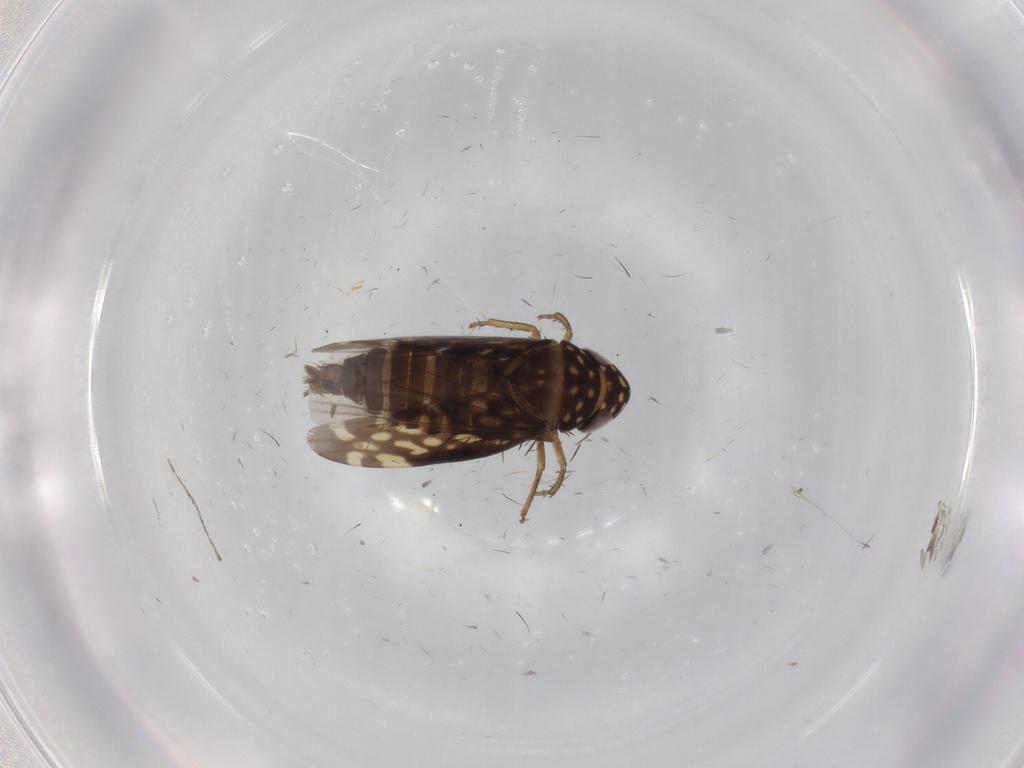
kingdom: Animalia
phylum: Arthropoda
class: Insecta
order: Hemiptera
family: Cicadellidae
